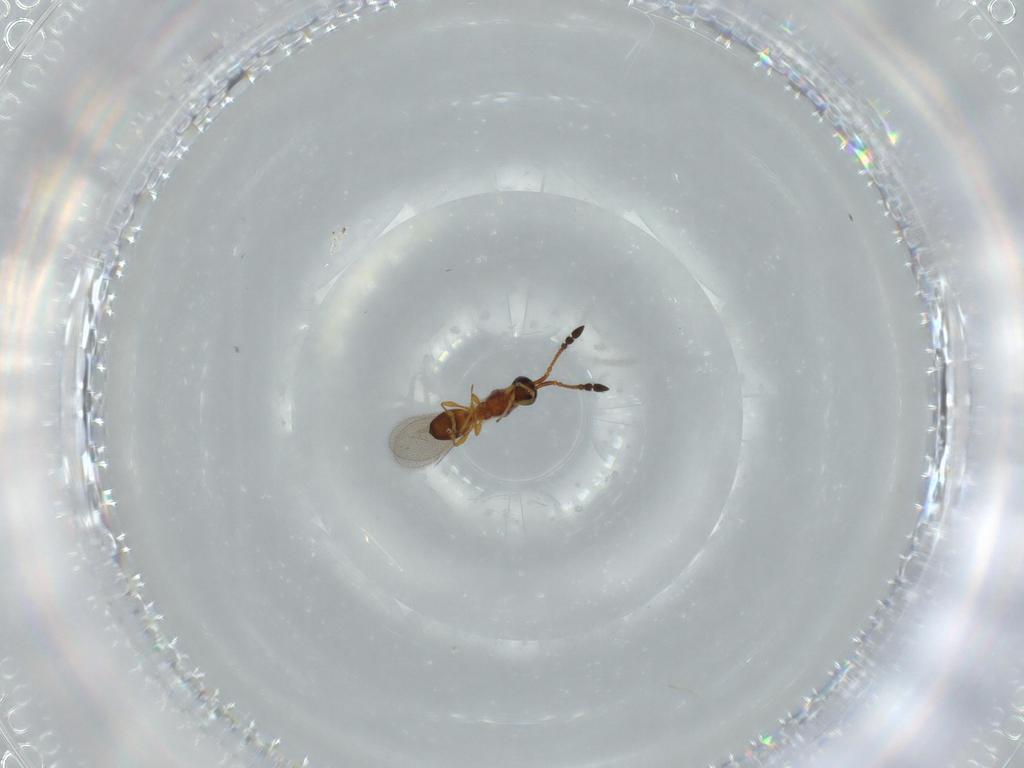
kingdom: Animalia
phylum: Arthropoda
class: Insecta
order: Hymenoptera
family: Diapriidae
